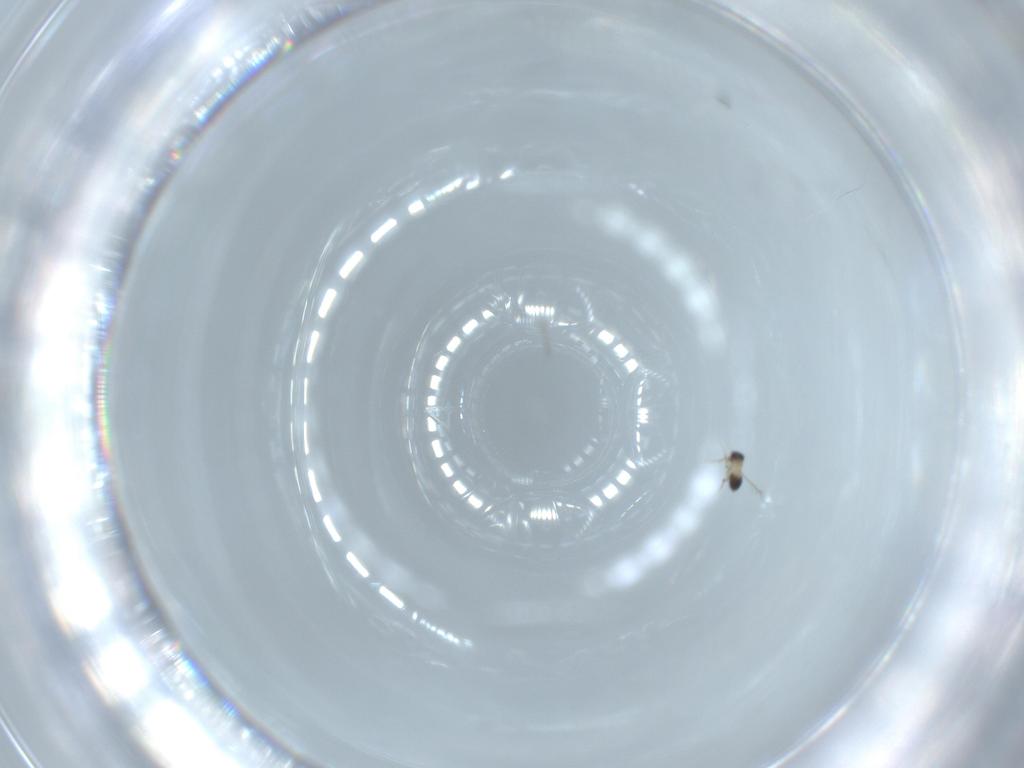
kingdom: Animalia
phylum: Arthropoda
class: Insecta
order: Hymenoptera
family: Mymaridae
